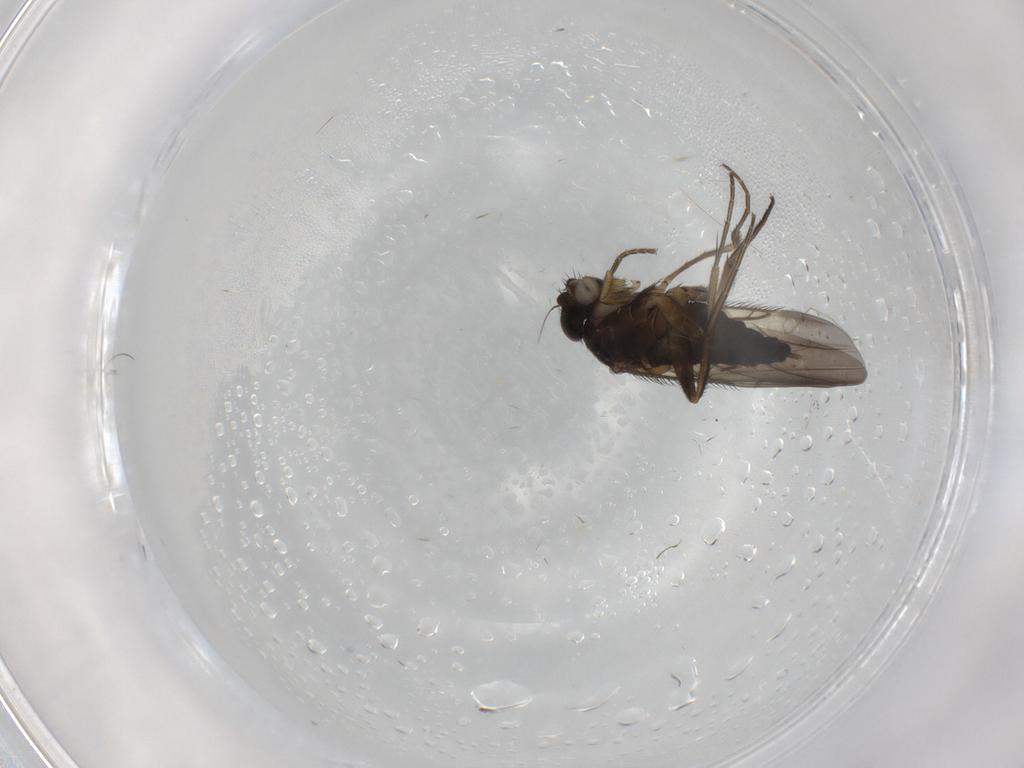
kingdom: Animalia
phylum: Arthropoda
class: Insecta
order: Diptera
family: Phoridae
